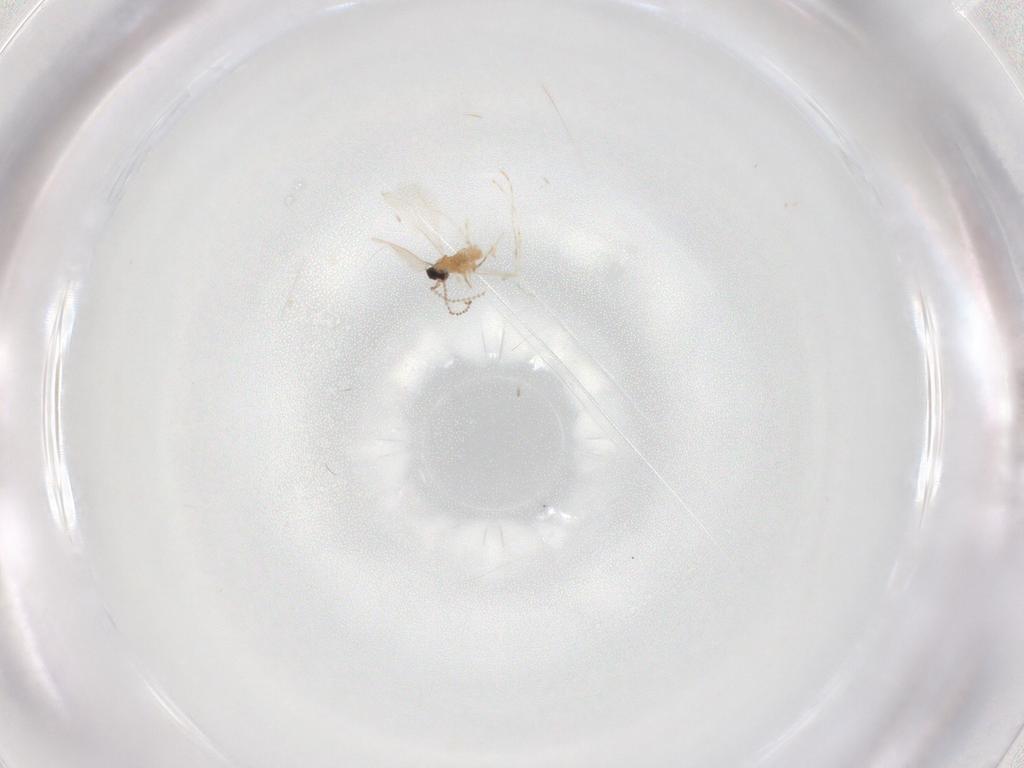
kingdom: Animalia
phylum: Arthropoda
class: Insecta
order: Diptera
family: Cecidomyiidae
